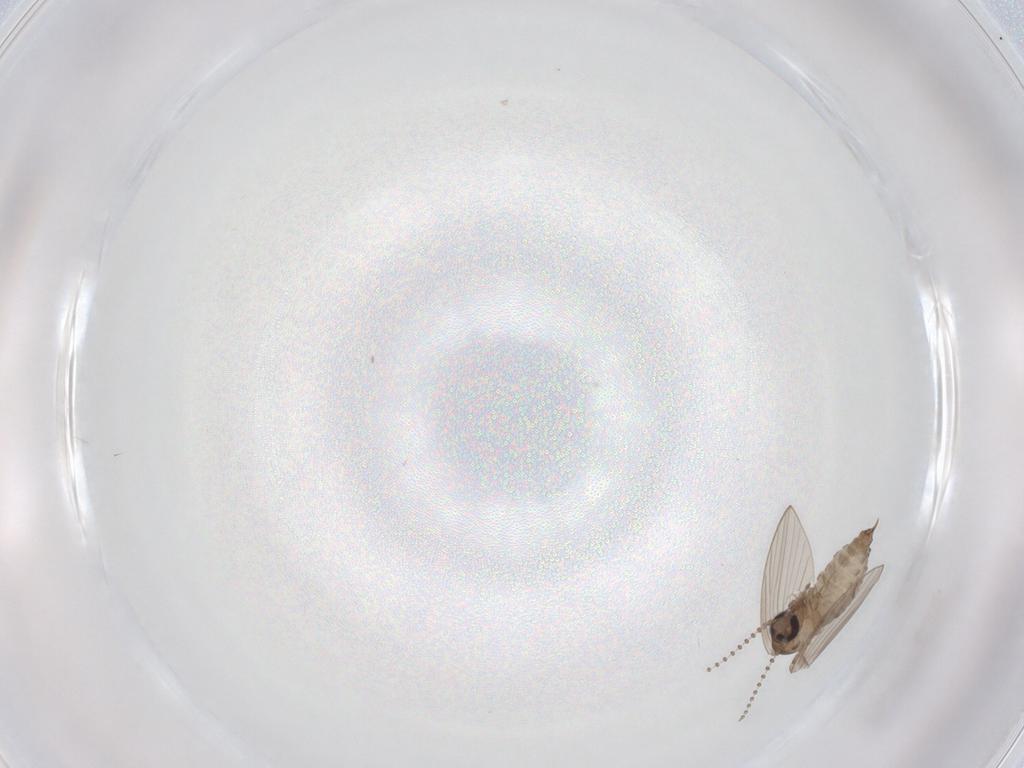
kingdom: Animalia
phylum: Arthropoda
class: Insecta
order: Diptera
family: Psychodidae
